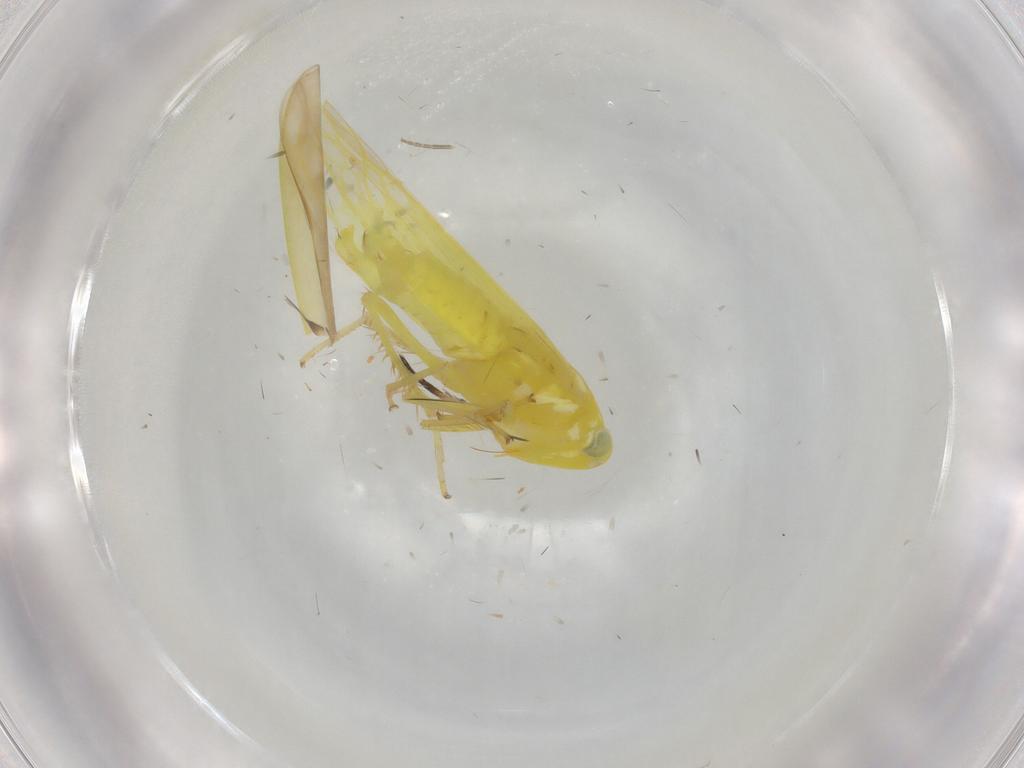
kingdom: Animalia
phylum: Arthropoda
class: Insecta
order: Hemiptera
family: Cicadellidae
